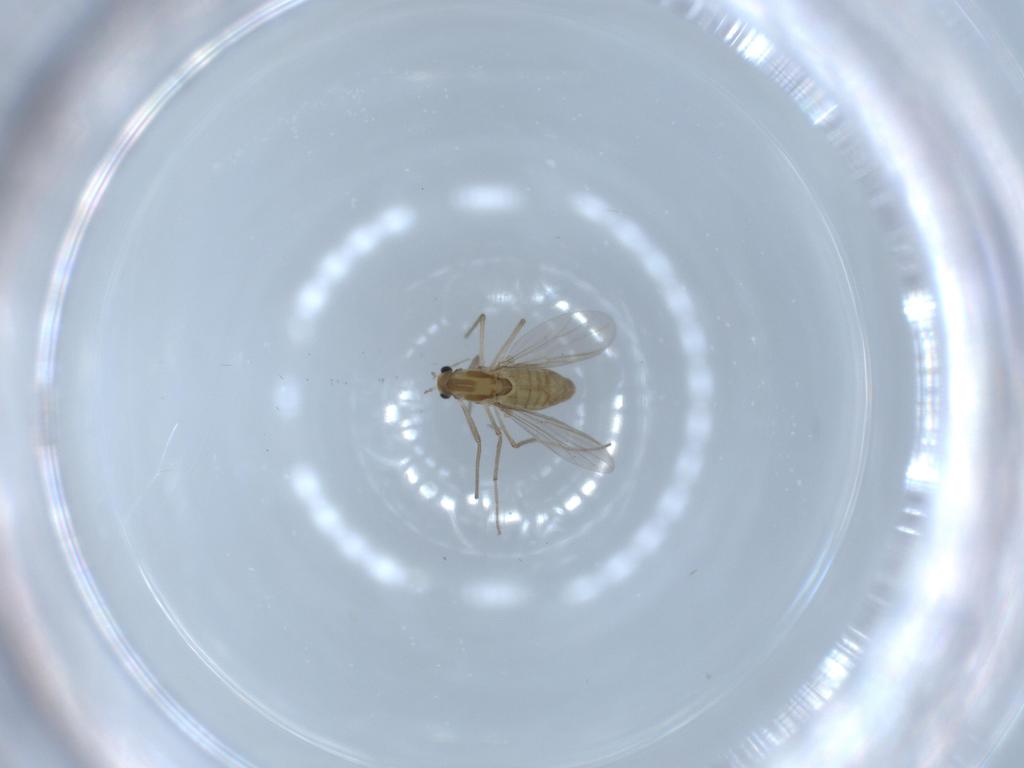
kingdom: Animalia
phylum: Arthropoda
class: Insecta
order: Diptera
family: Chironomidae
